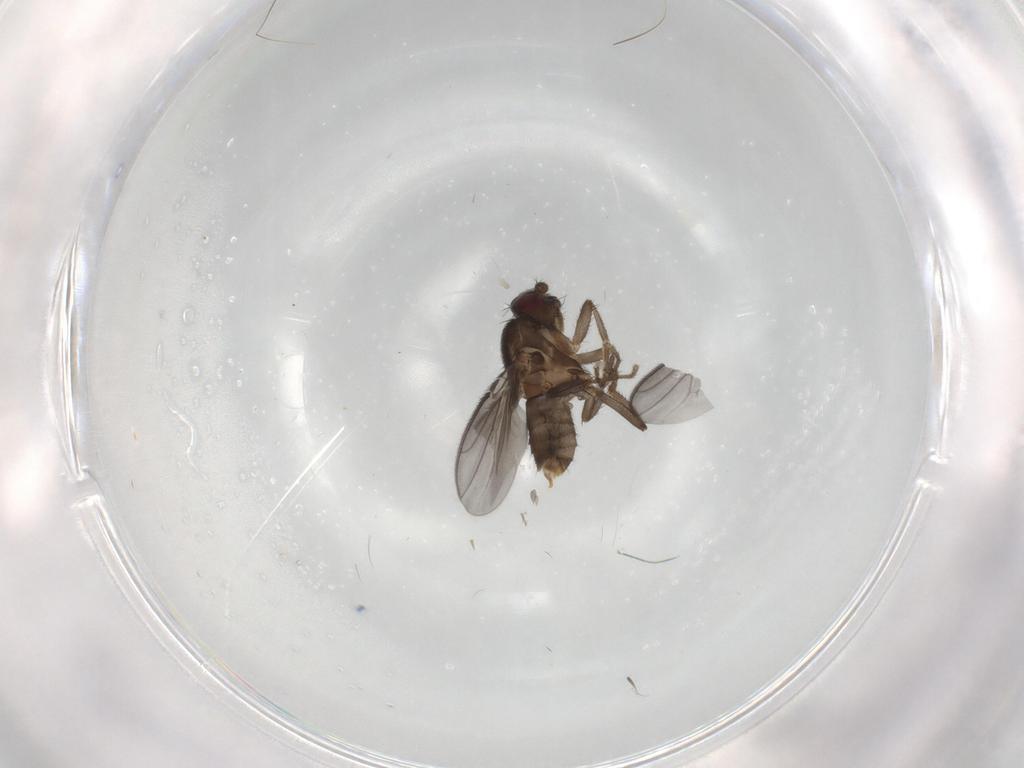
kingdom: Animalia
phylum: Arthropoda
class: Insecta
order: Diptera
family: Sphaeroceridae
